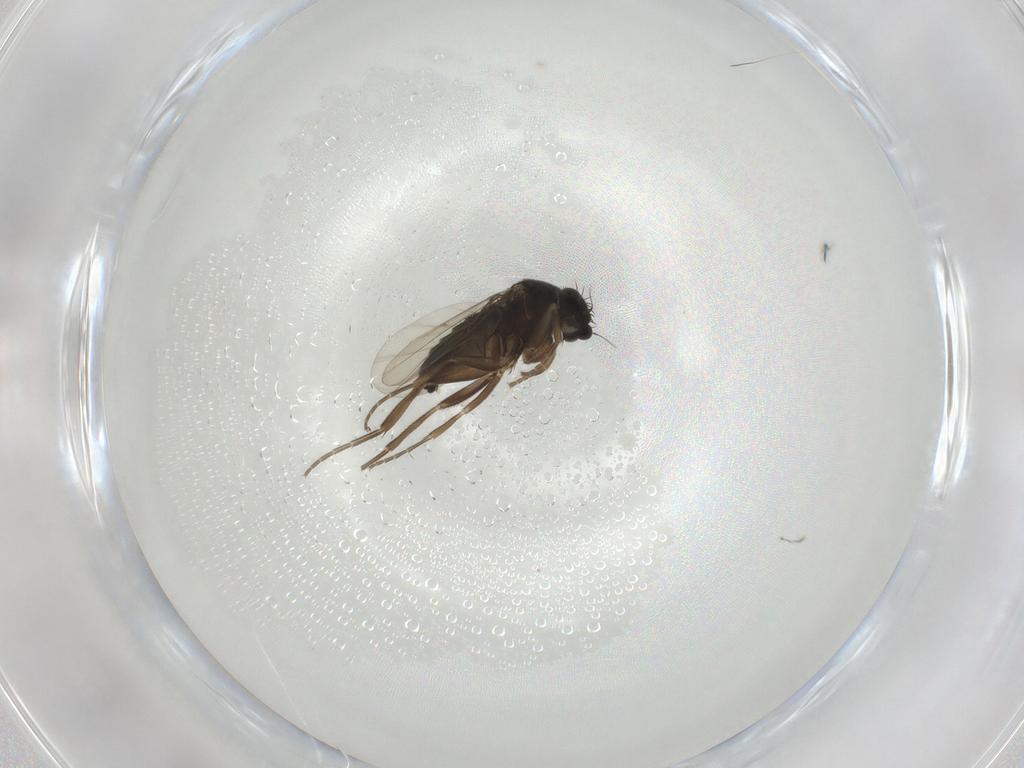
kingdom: Animalia
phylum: Arthropoda
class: Insecta
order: Diptera
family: Phoridae
